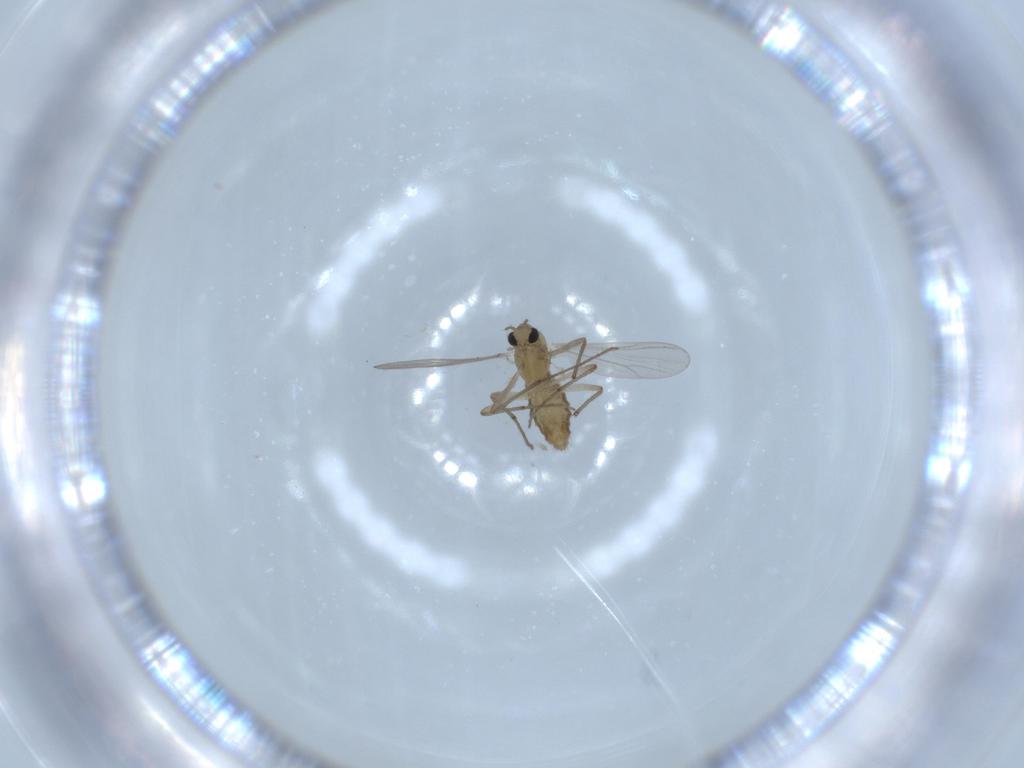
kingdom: Animalia
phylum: Arthropoda
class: Insecta
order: Diptera
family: Chironomidae
